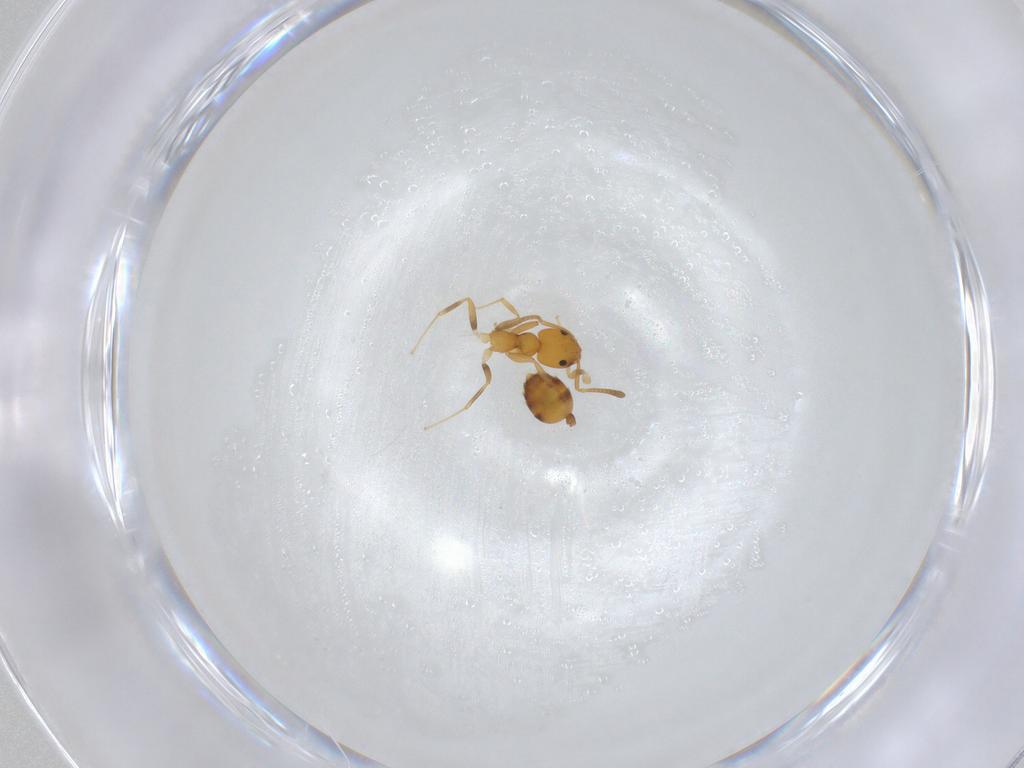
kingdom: Animalia
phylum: Arthropoda
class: Insecta
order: Hymenoptera
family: Formicidae
